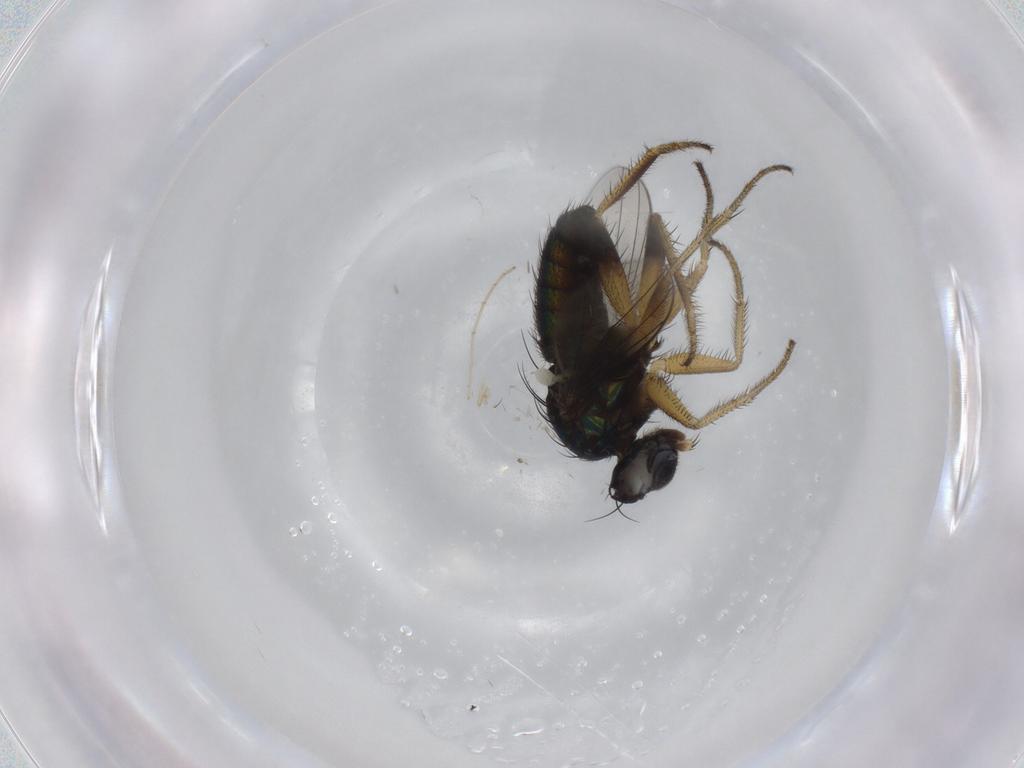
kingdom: Animalia
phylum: Arthropoda
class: Insecta
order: Diptera
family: Dolichopodidae
